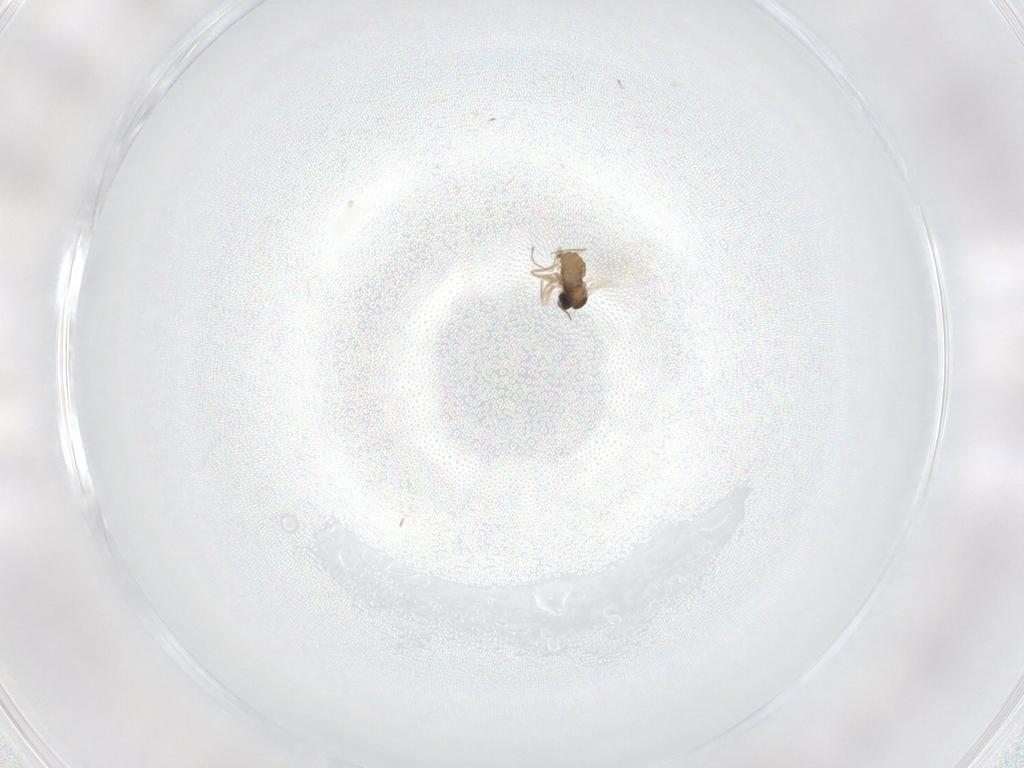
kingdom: Animalia
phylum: Arthropoda
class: Insecta
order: Diptera
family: Cecidomyiidae
